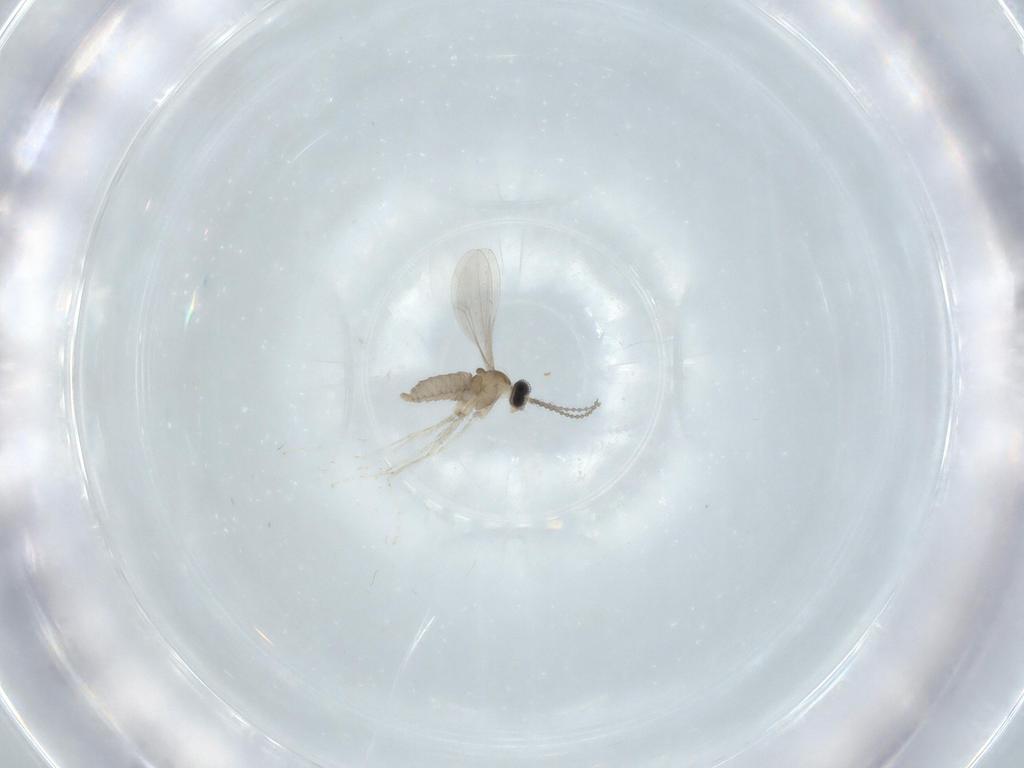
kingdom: Animalia
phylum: Arthropoda
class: Insecta
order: Diptera
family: Cecidomyiidae
